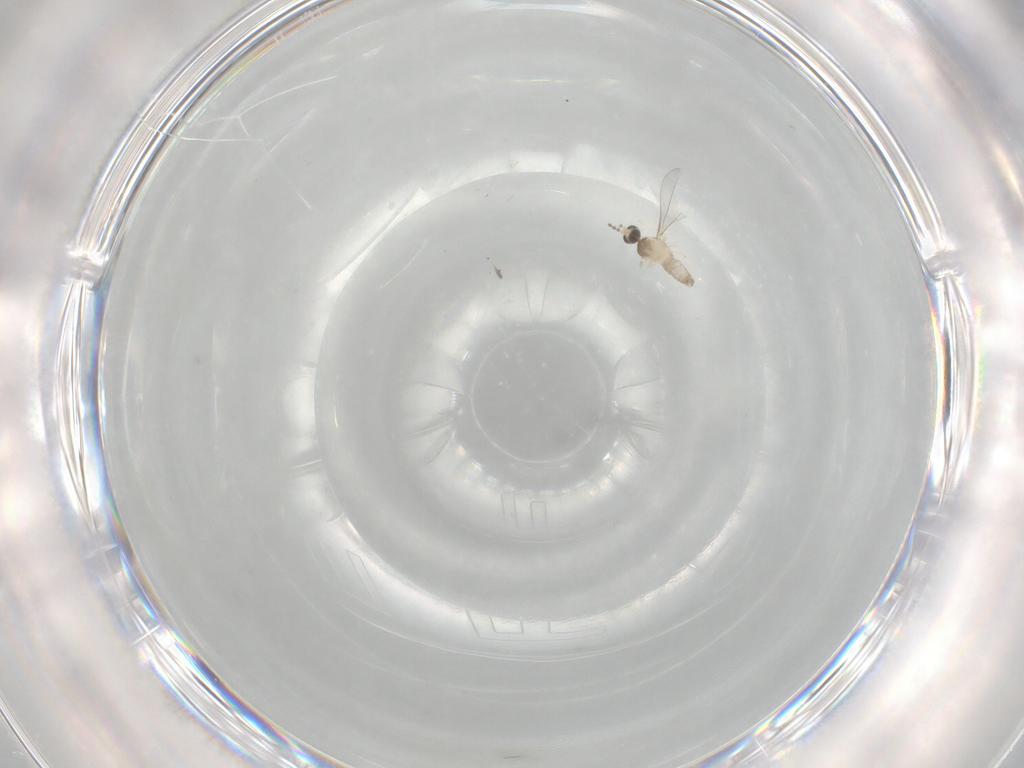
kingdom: Animalia
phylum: Arthropoda
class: Insecta
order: Diptera
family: Cecidomyiidae
